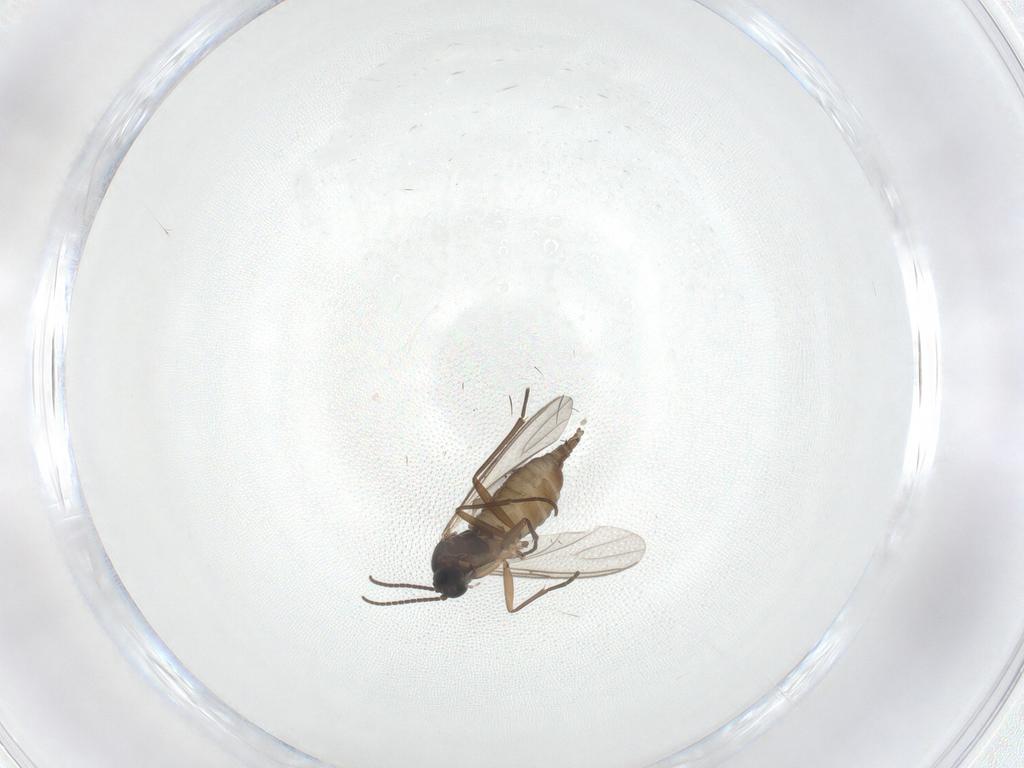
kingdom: Animalia
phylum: Arthropoda
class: Insecta
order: Diptera
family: Sciaridae
